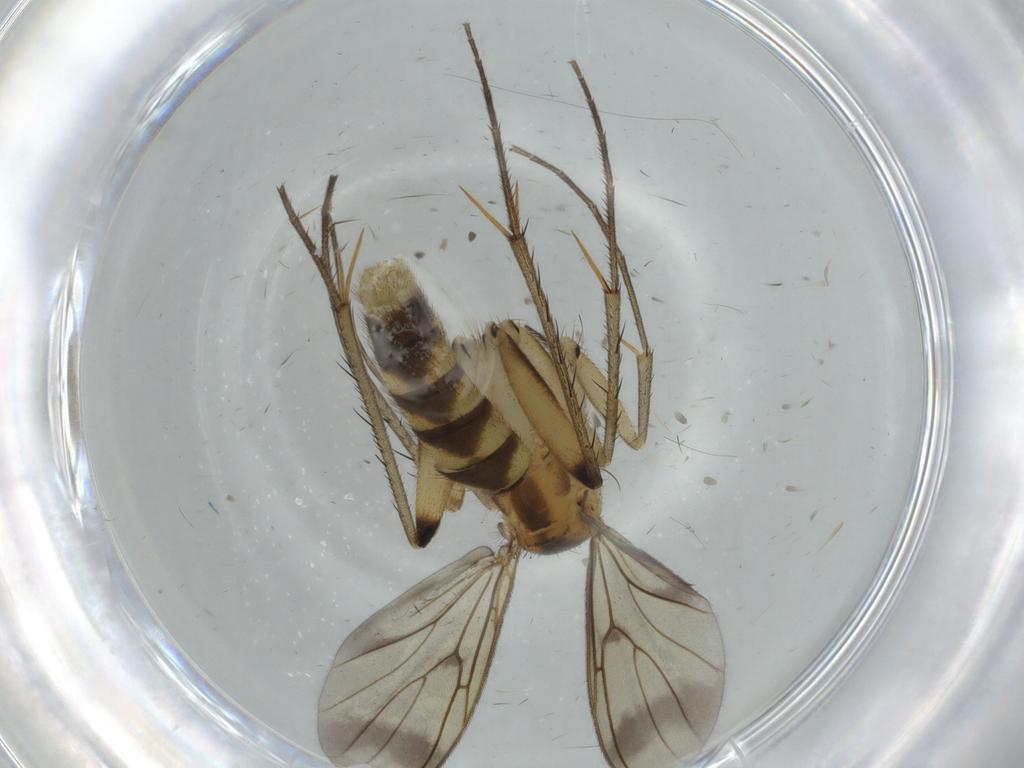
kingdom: Animalia
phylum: Arthropoda
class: Insecta
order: Diptera
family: Mycetophilidae
